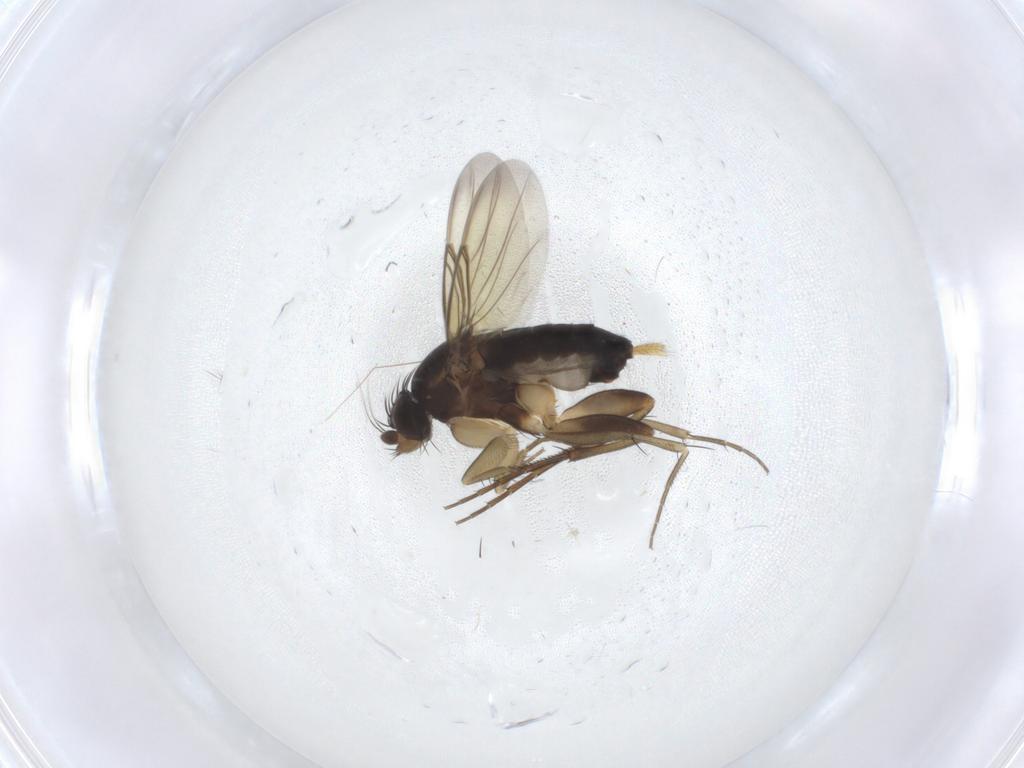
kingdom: Animalia
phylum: Arthropoda
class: Insecta
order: Diptera
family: Phoridae
